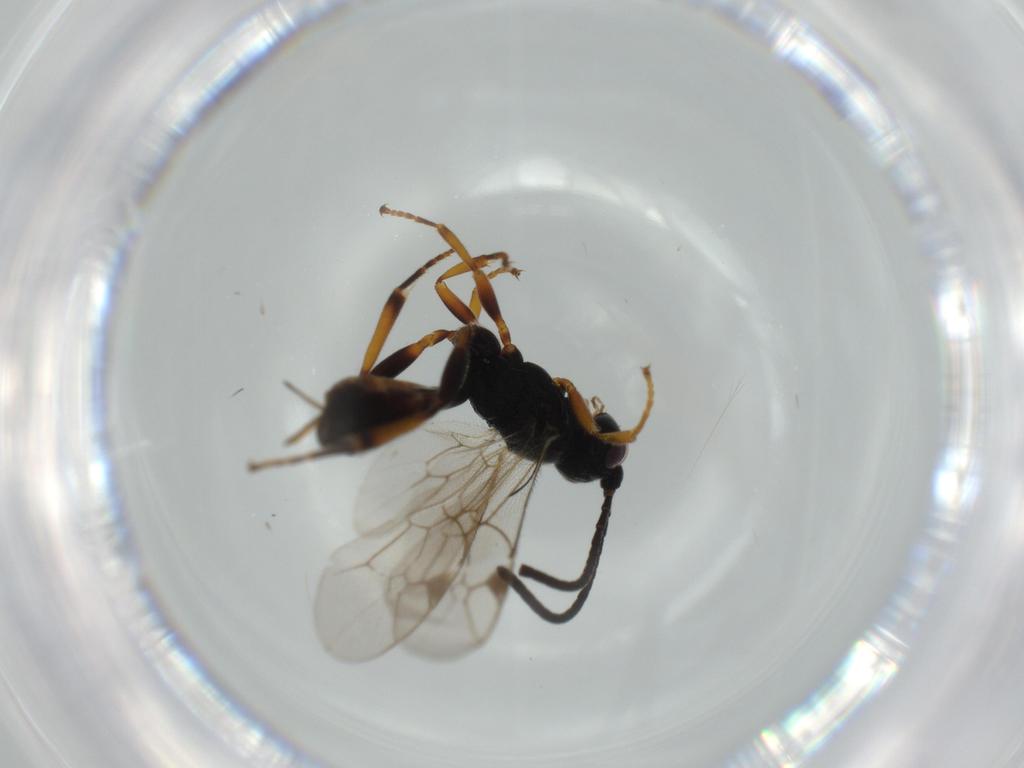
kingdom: Animalia
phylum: Arthropoda
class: Insecta
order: Hymenoptera
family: Ichneumonidae
